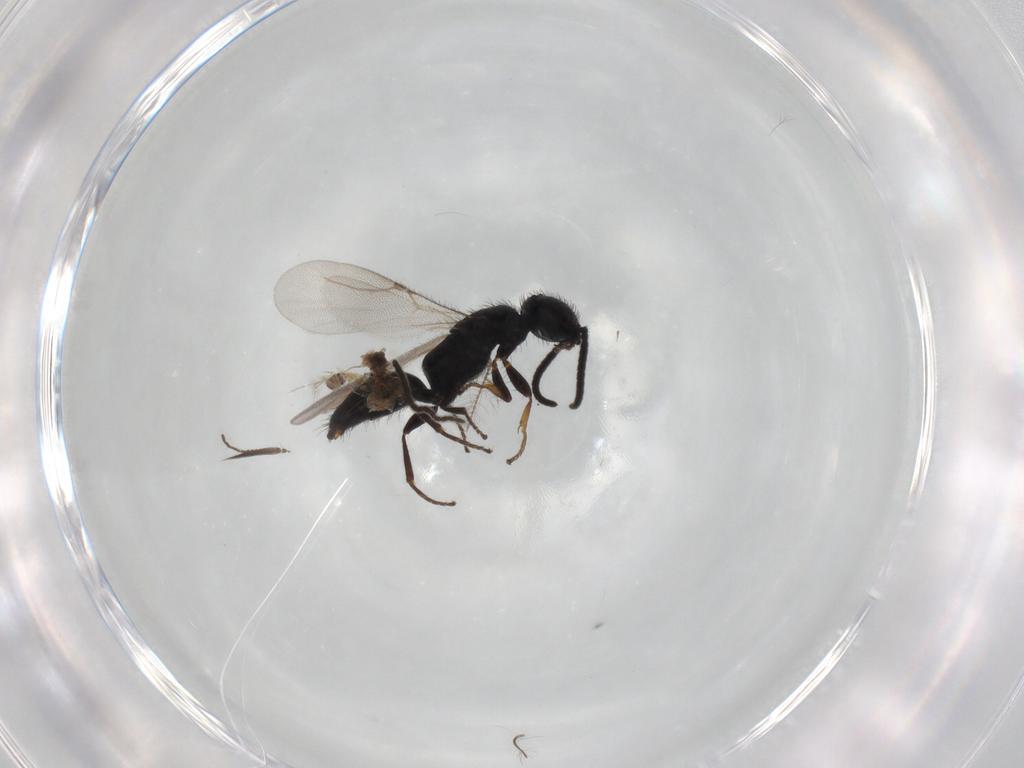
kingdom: Animalia
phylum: Arthropoda
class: Insecta
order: Hymenoptera
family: Bethylidae
